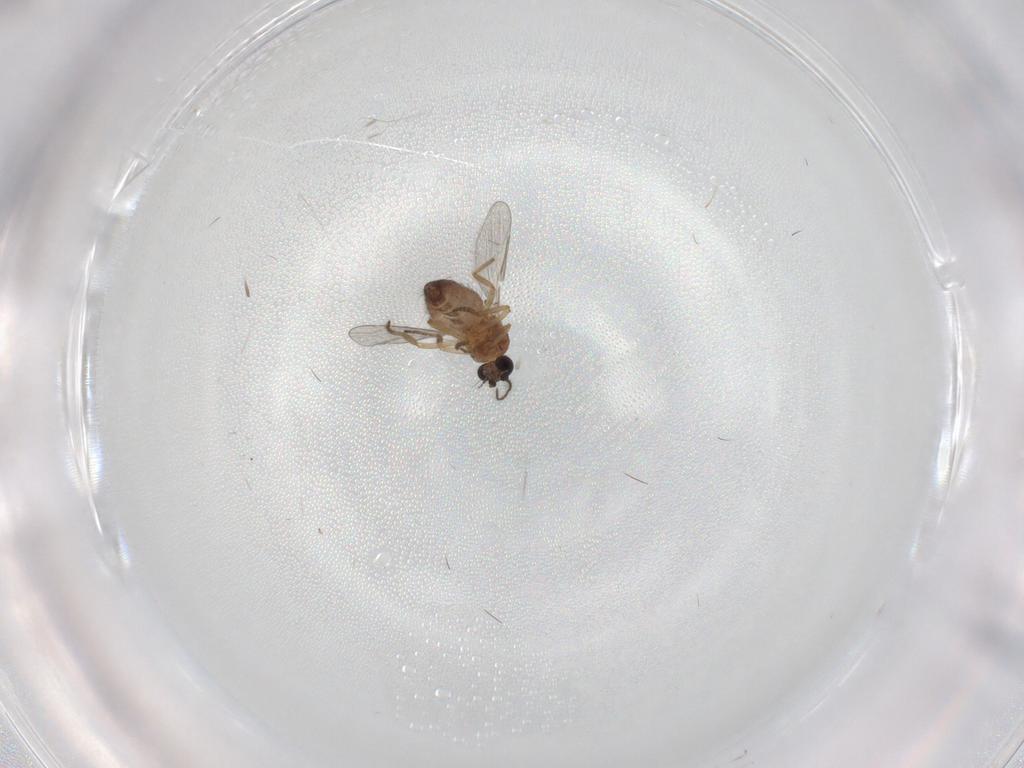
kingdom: Animalia
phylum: Arthropoda
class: Insecta
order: Diptera
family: Ceratopogonidae
